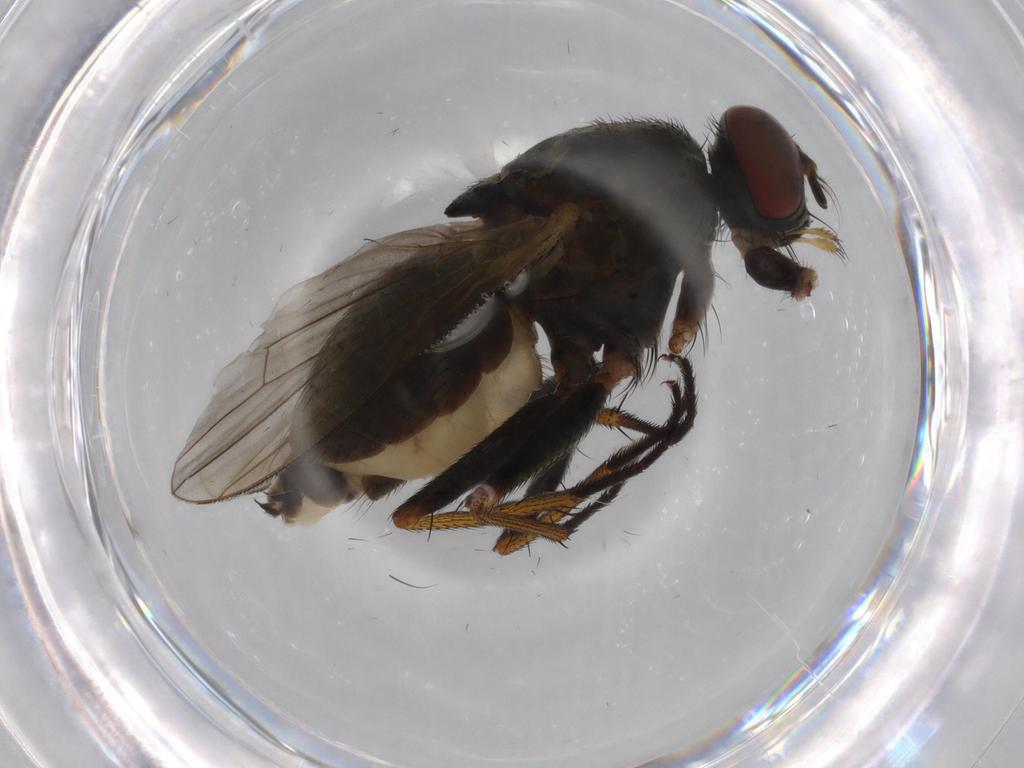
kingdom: Animalia
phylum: Arthropoda
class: Insecta
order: Diptera
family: Muscidae
